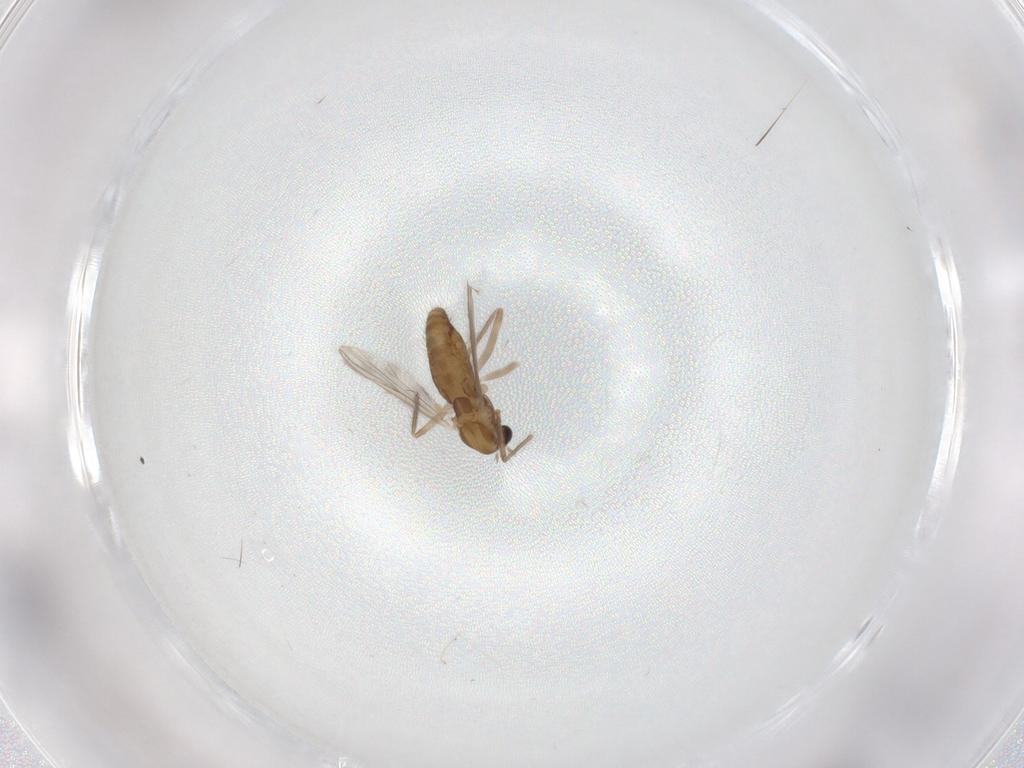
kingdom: Animalia
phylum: Arthropoda
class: Insecta
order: Diptera
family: Chironomidae
